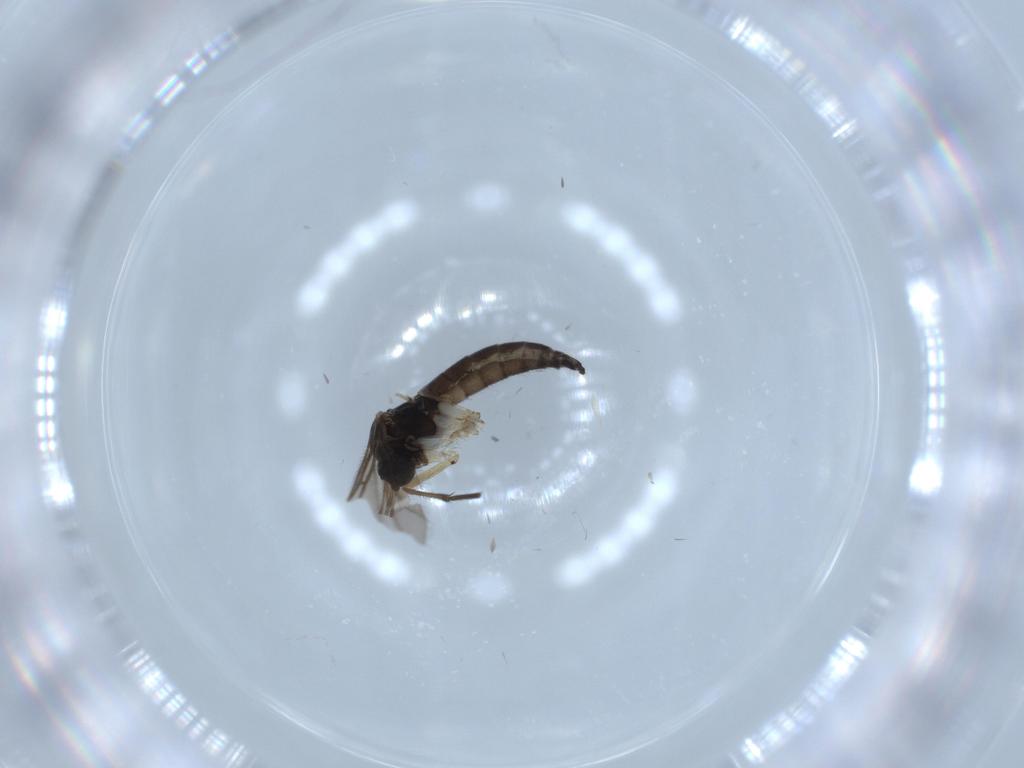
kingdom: Animalia
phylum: Arthropoda
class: Insecta
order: Diptera
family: Sciaridae
